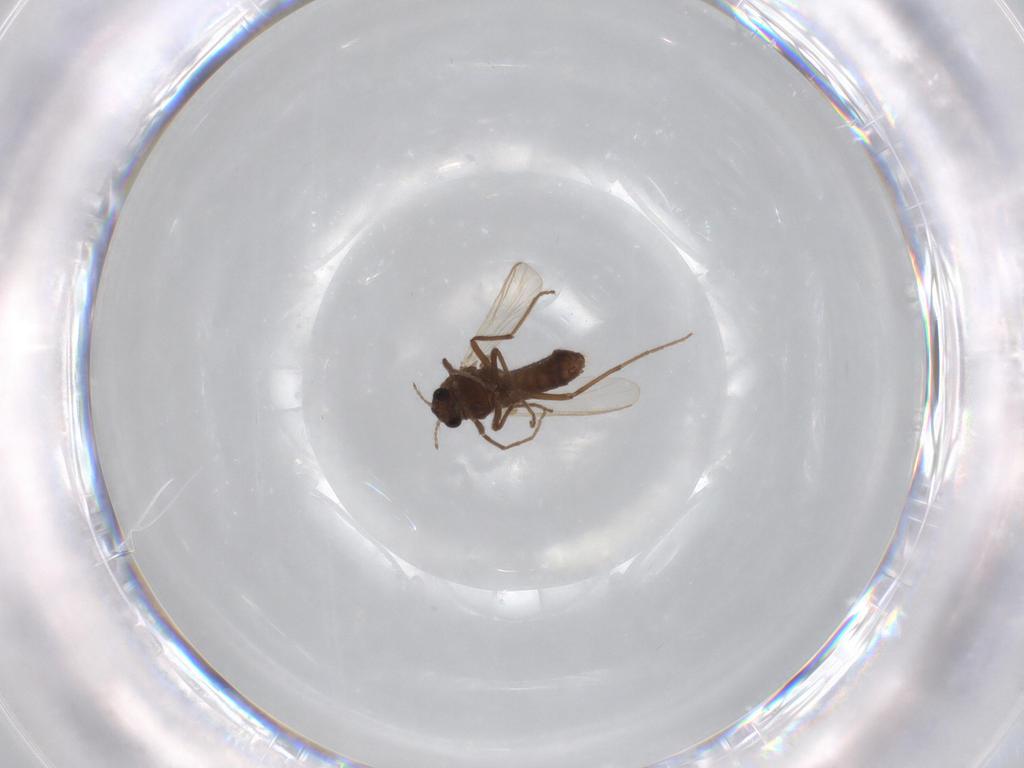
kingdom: Animalia
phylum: Arthropoda
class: Insecta
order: Diptera
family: Chironomidae
